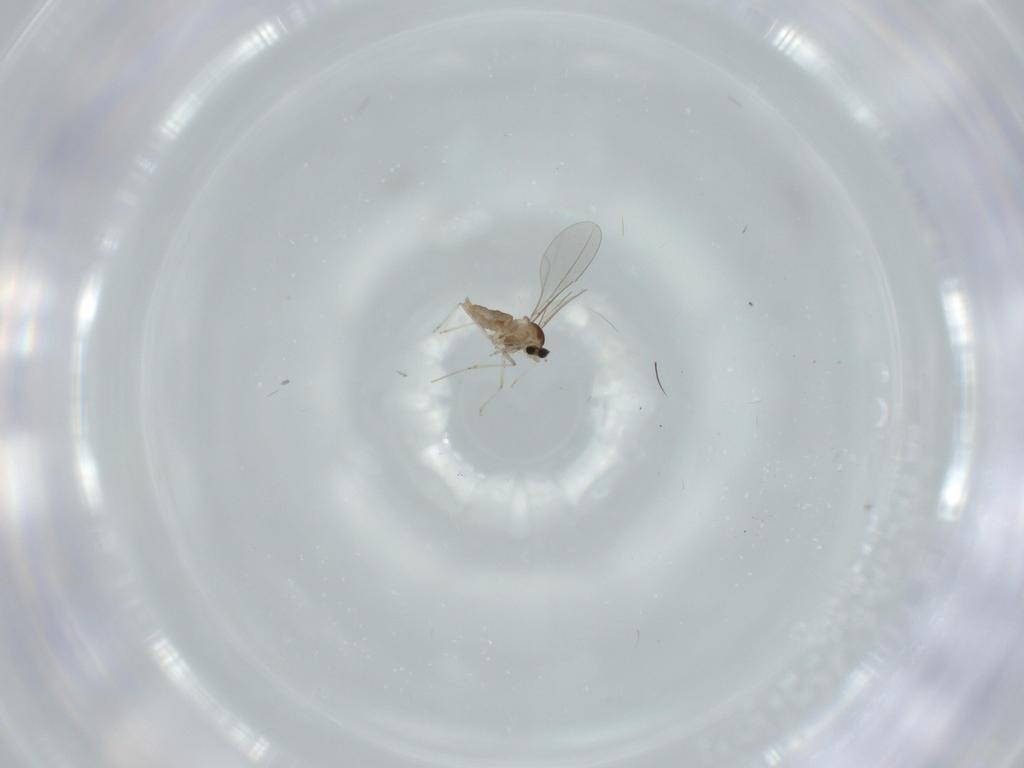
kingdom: Animalia
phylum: Arthropoda
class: Insecta
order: Diptera
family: Cecidomyiidae
